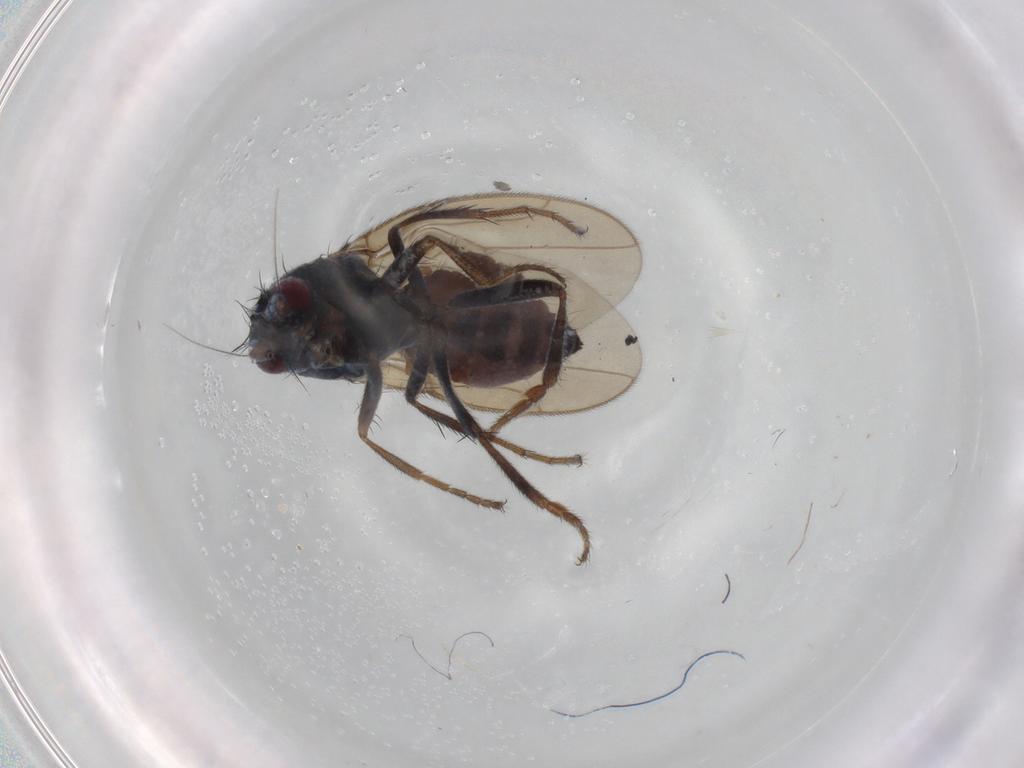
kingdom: Animalia
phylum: Arthropoda
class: Insecta
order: Diptera
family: Sphaeroceridae
